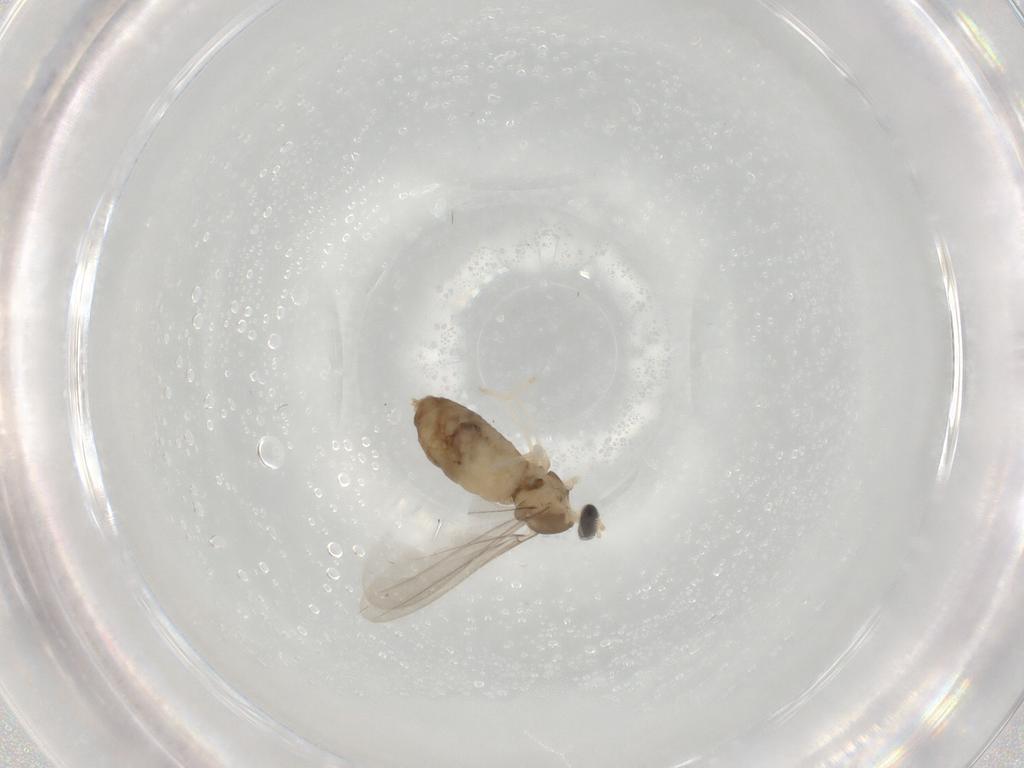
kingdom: Animalia
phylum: Arthropoda
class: Insecta
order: Diptera
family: Cecidomyiidae
